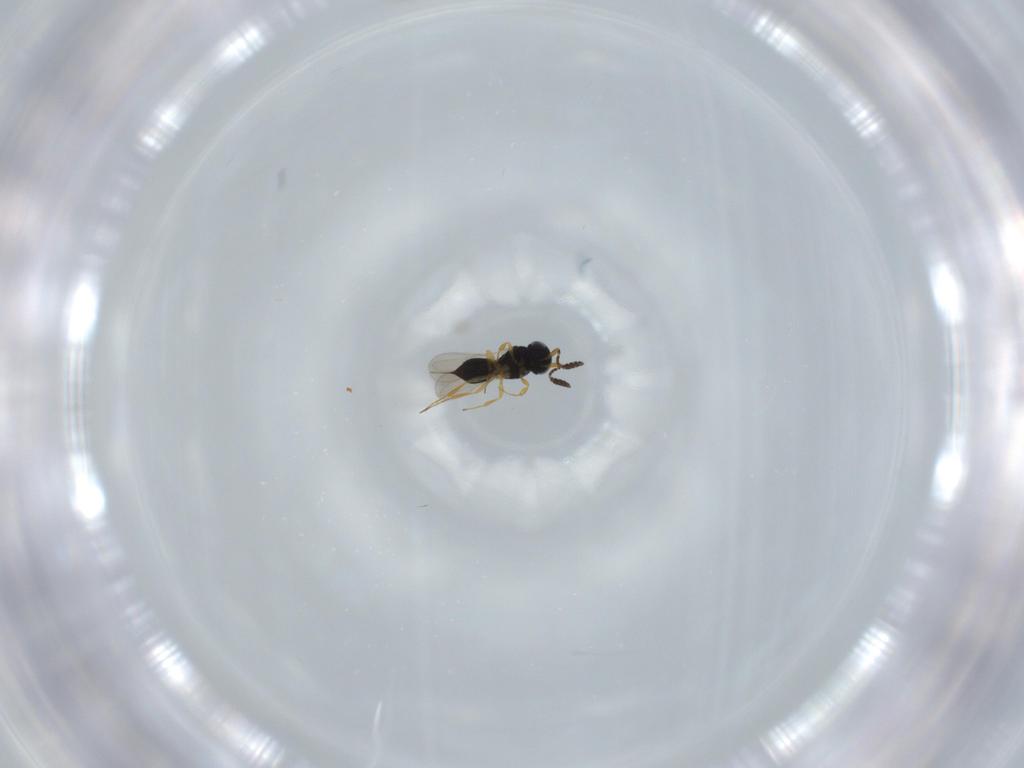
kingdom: Animalia
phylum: Arthropoda
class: Insecta
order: Hymenoptera
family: Scelionidae
